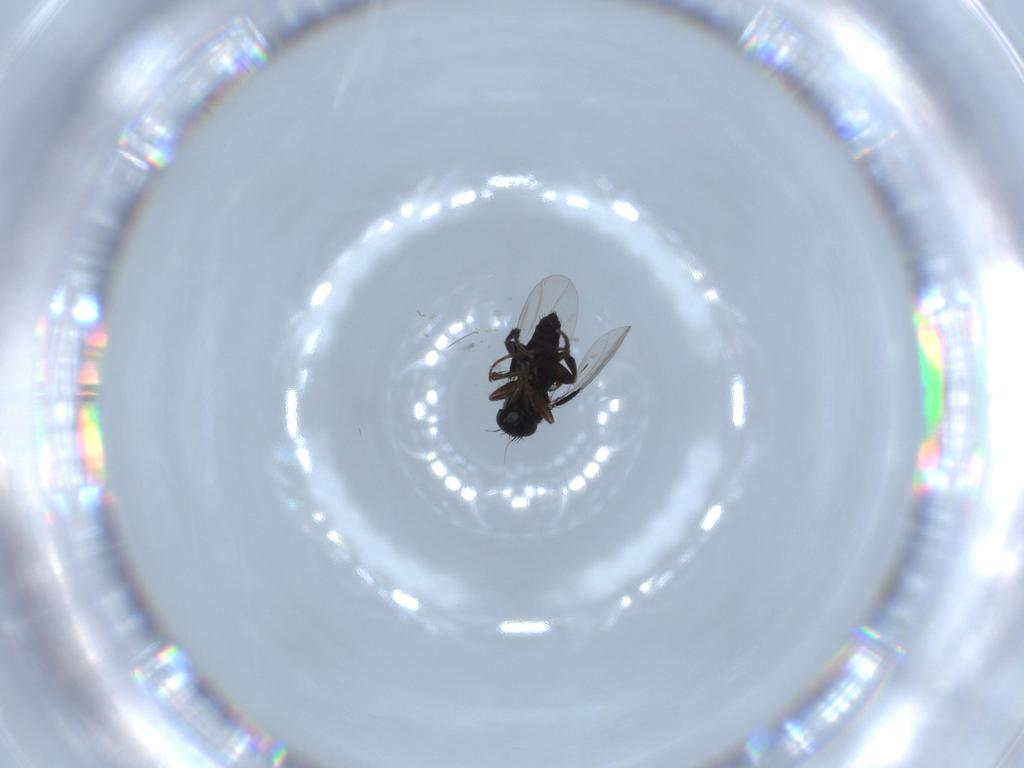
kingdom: Animalia
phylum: Arthropoda
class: Insecta
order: Diptera
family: Phoridae
